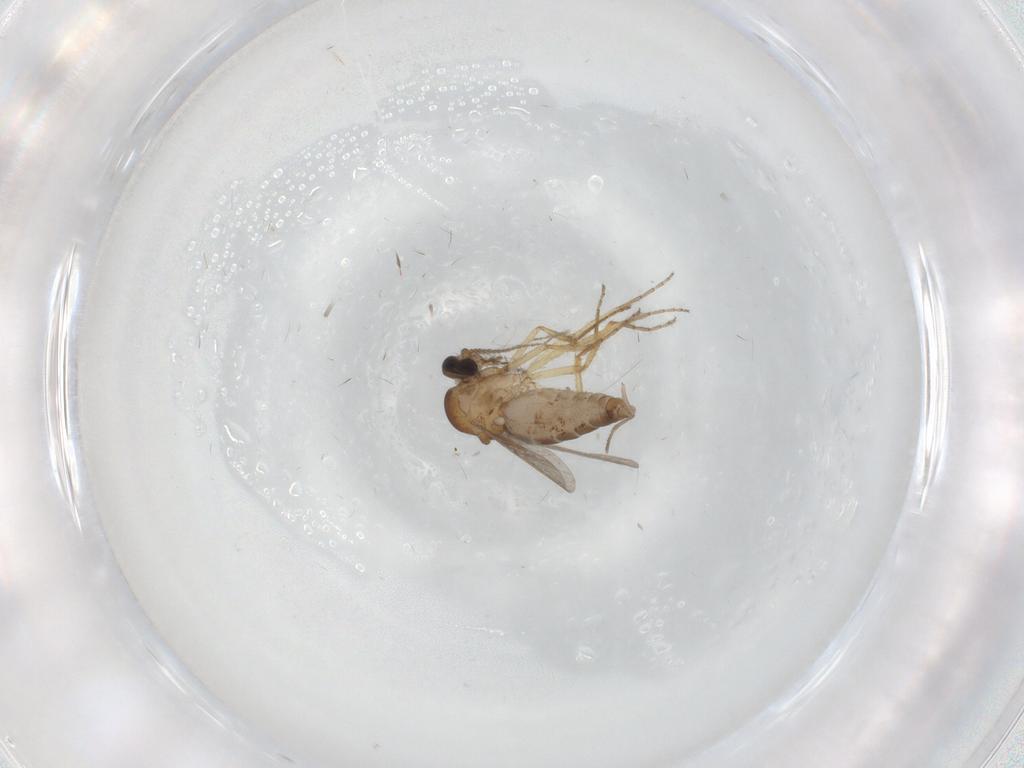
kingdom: Animalia
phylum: Arthropoda
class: Insecta
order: Diptera
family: Ceratopogonidae
